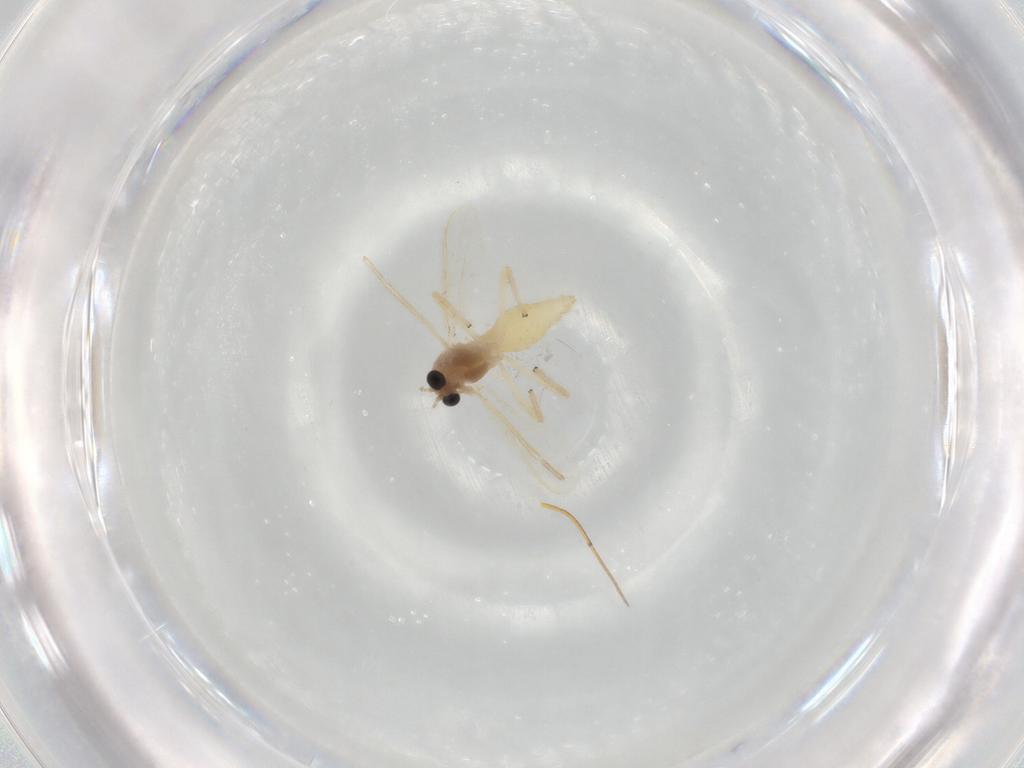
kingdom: Animalia
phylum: Arthropoda
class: Insecta
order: Diptera
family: Chironomidae
